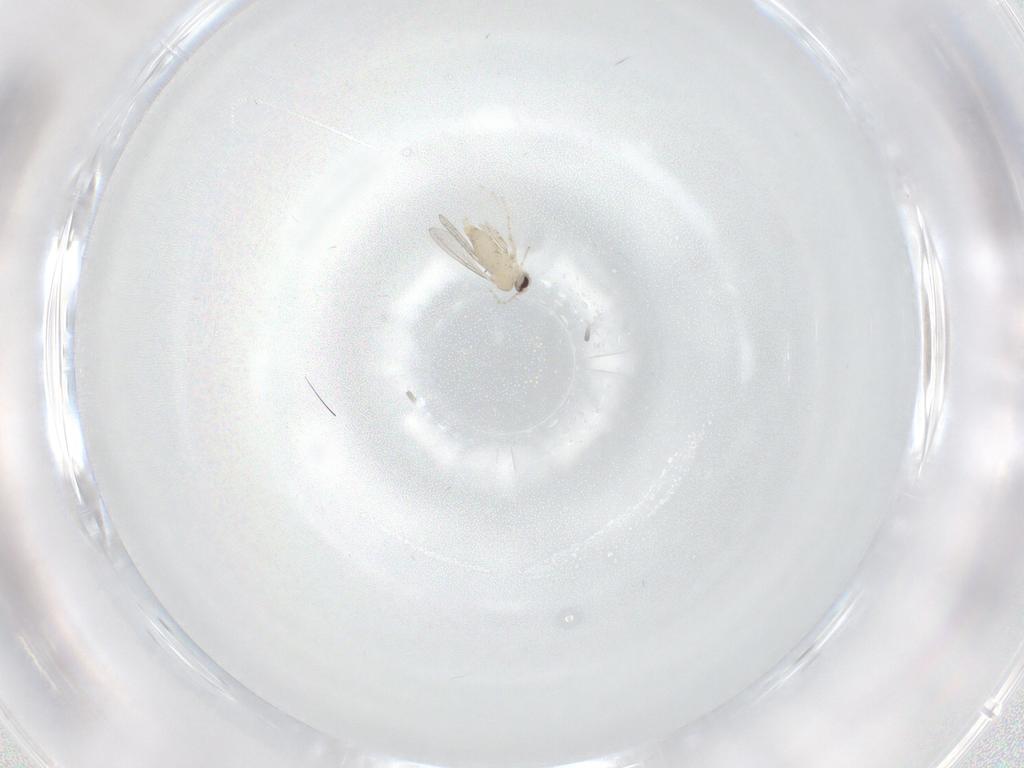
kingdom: Animalia
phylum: Arthropoda
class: Insecta
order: Diptera
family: Cecidomyiidae
